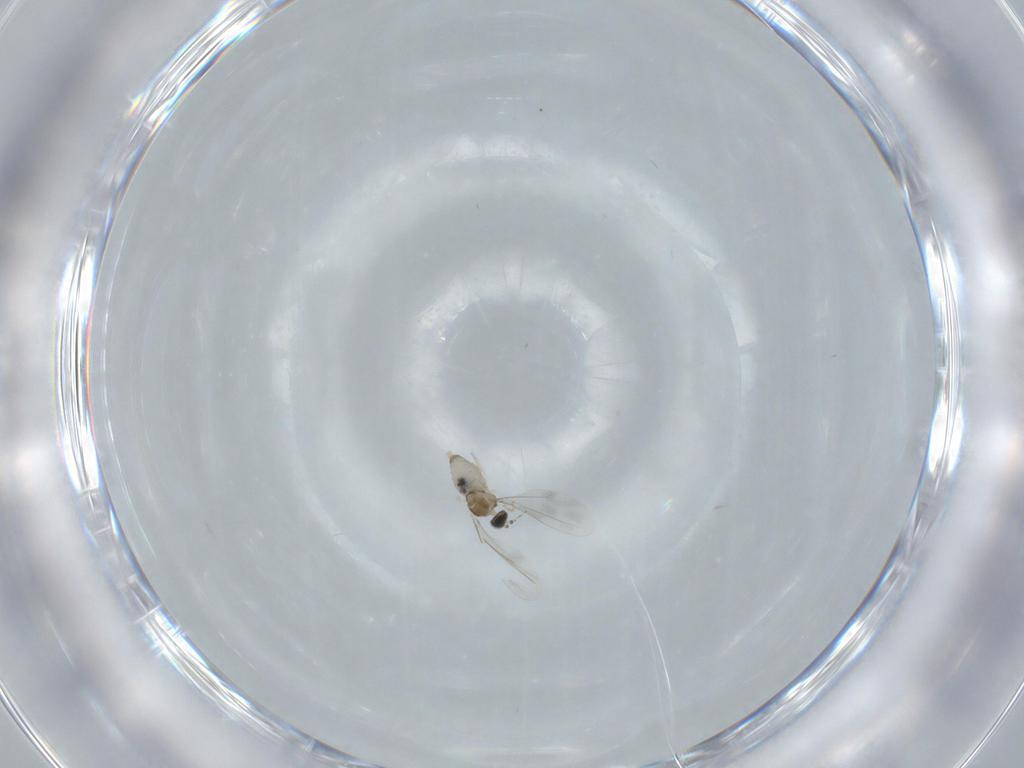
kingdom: Animalia
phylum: Arthropoda
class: Insecta
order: Diptera
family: Cecidomyiidae
